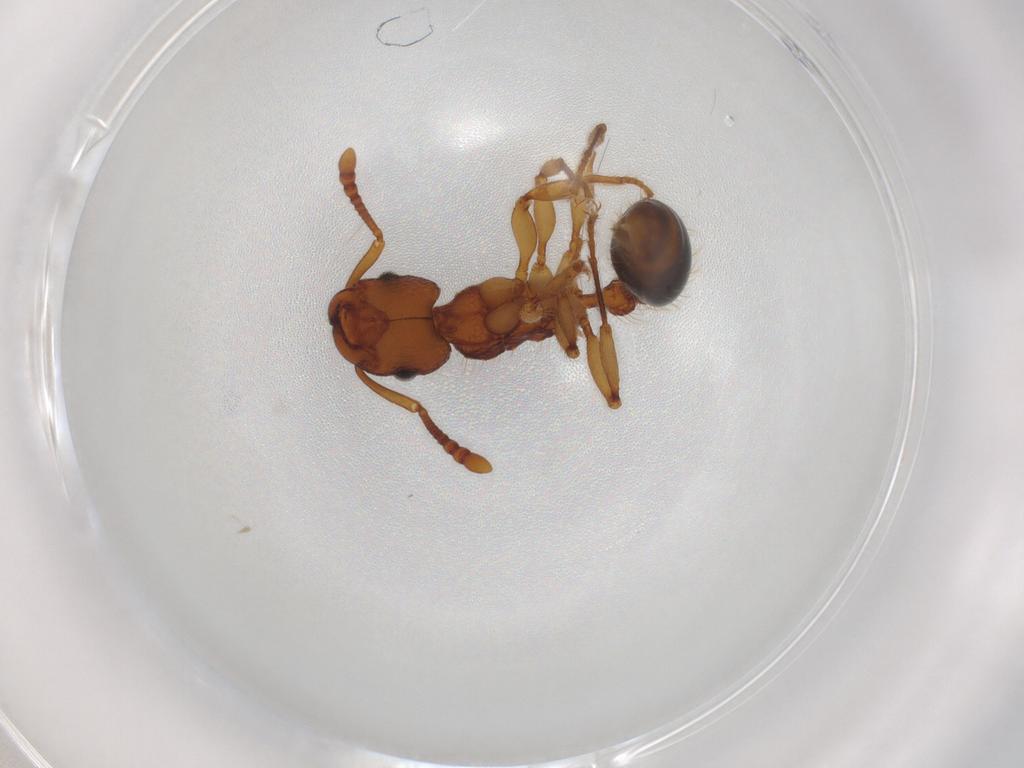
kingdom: Animalia
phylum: Arthropoda
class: Insecta
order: Hymenoptera
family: Formicidae
